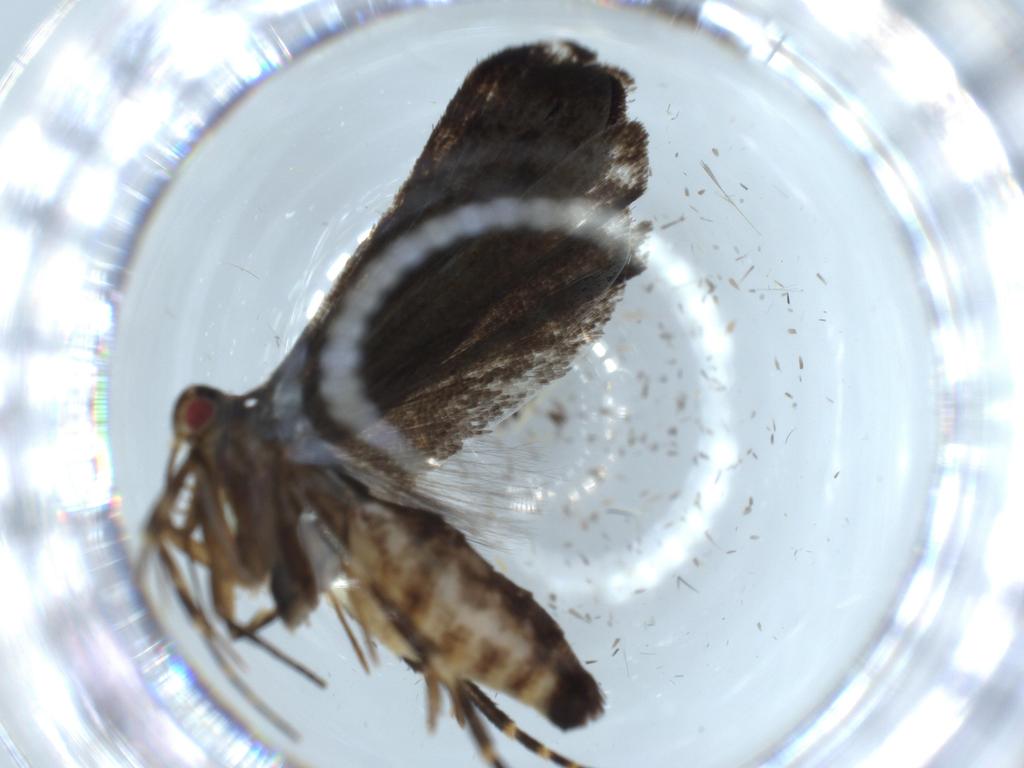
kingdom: Animalia
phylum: Arthropoda
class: Insecta
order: Lepidoptera
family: Gelechiidae
